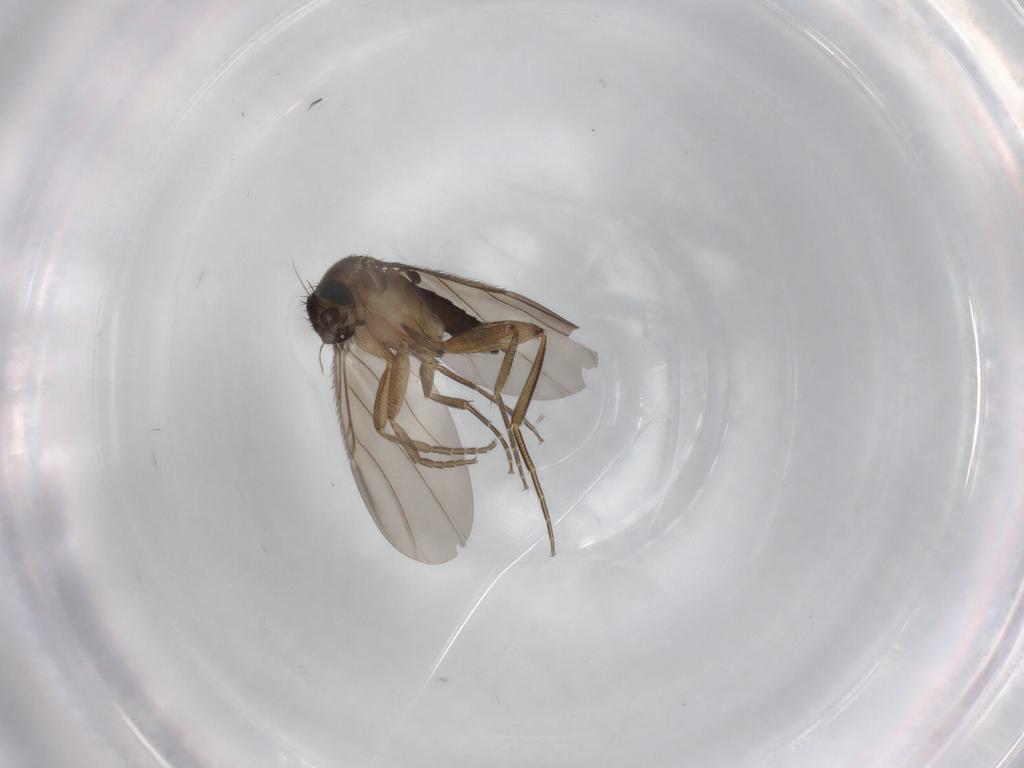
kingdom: Animalia
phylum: Arthropoda
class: Insecta
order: Diptera
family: Phoridae
